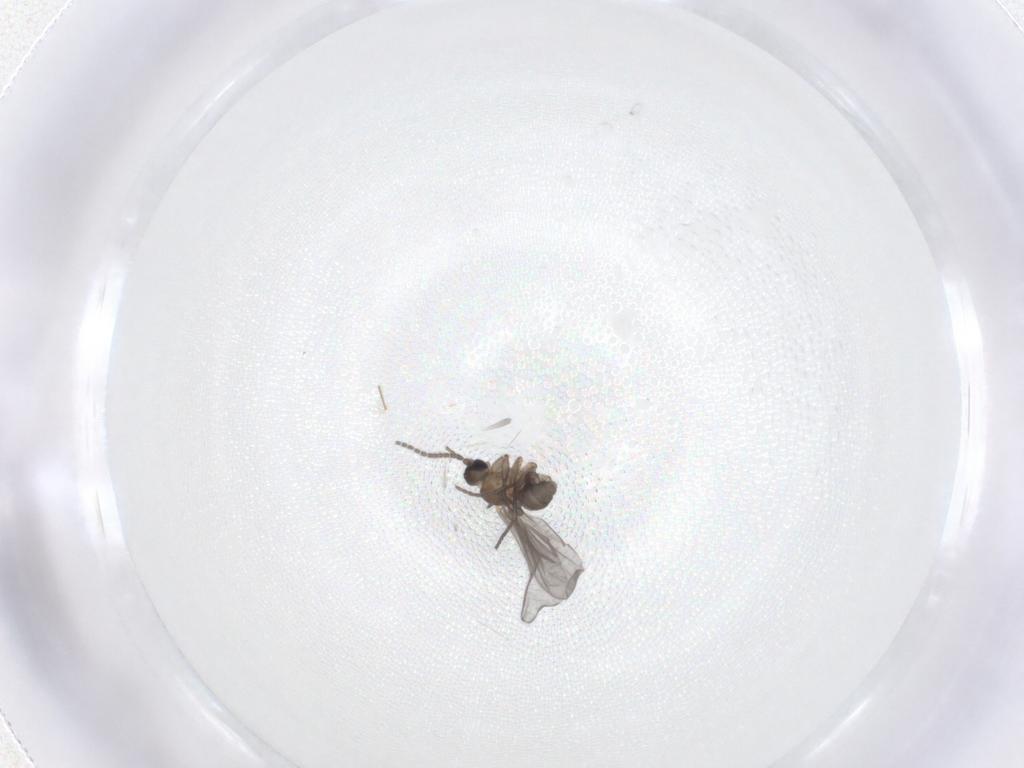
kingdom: Animalia
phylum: Arthropoda
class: Insecta
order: Diptera
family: Sciaridae
